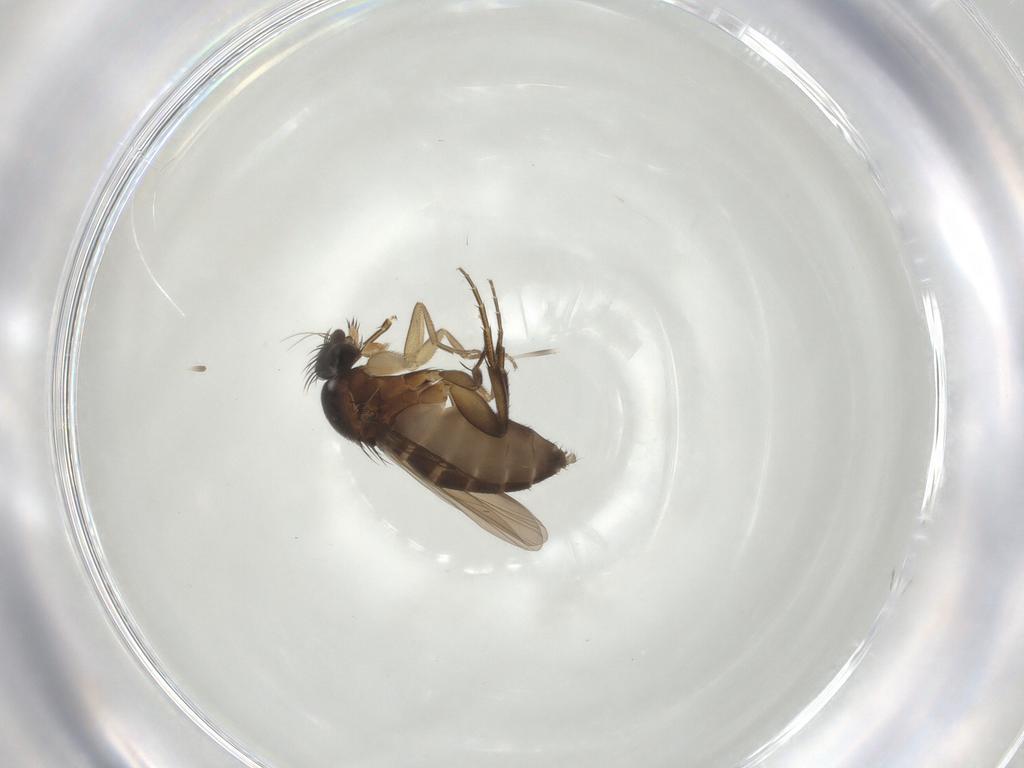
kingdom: Animalia
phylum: Arthropoda
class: Insecta
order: Diptera
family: Phoridae
